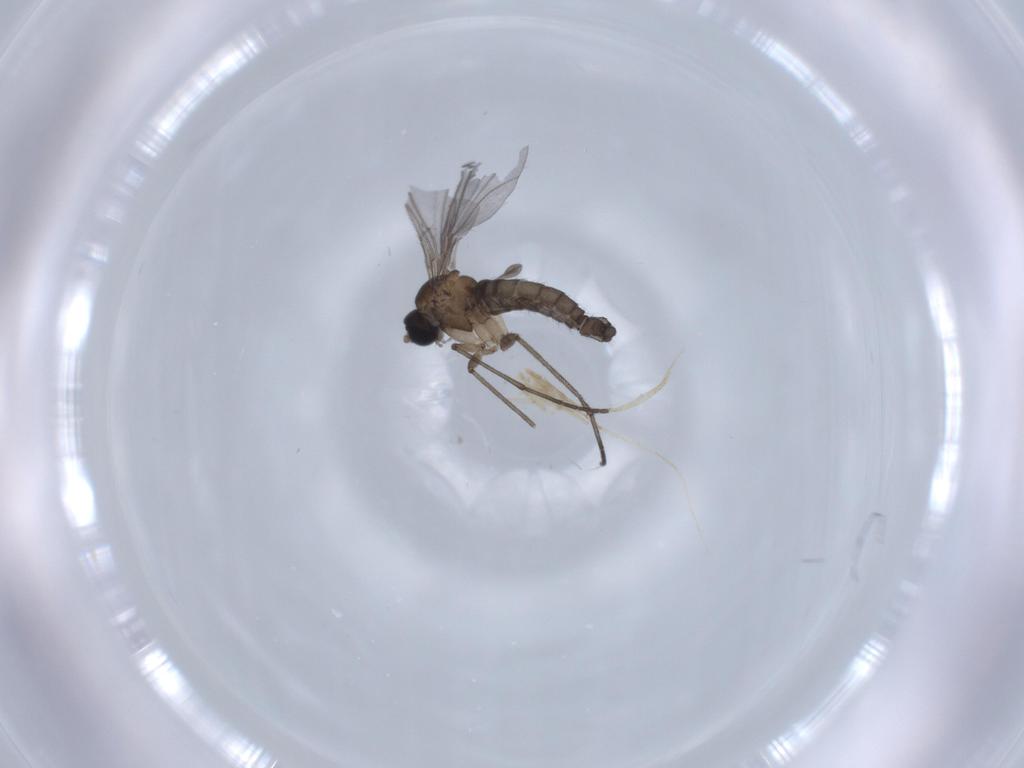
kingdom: Animalia
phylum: Arthropoda
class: Insecta
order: Diptera
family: Sciaridae
